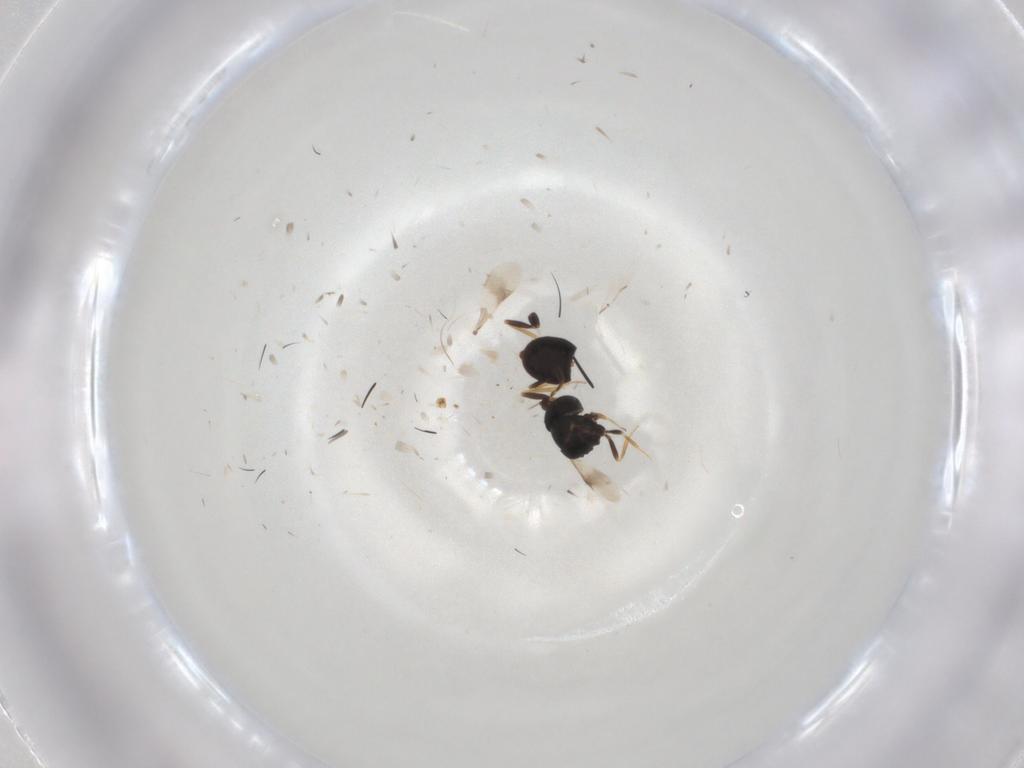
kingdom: Animalia
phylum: Arthropoda
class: Insecta
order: Hymenoptera
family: Scelionidae
